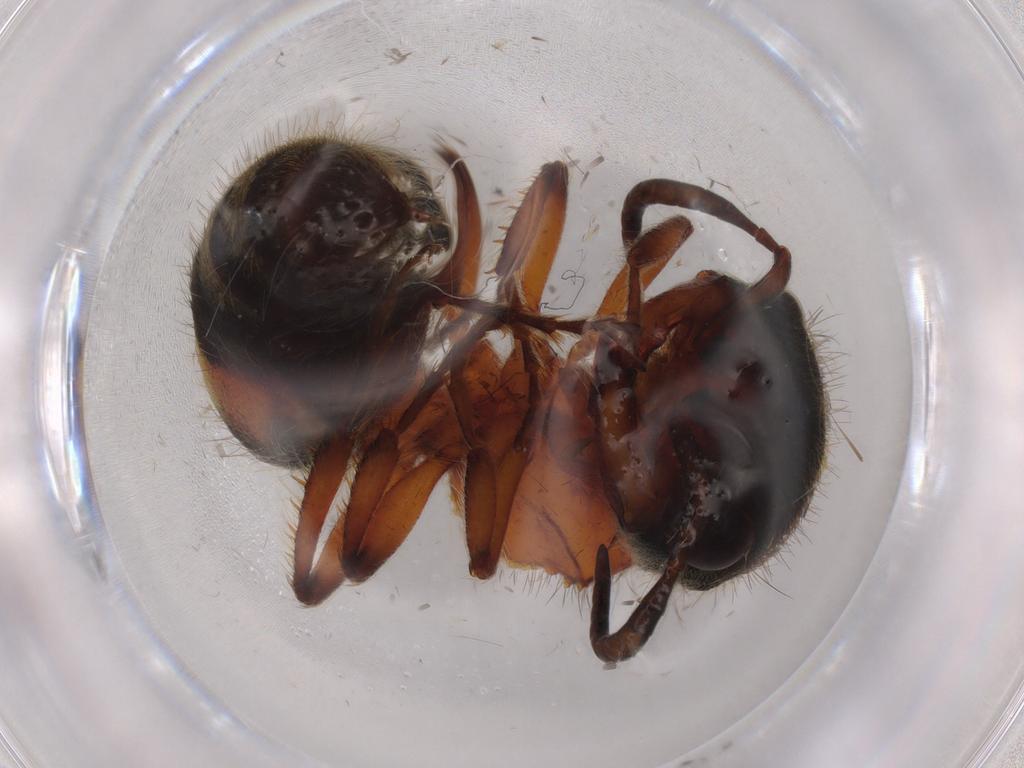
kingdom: Animalia
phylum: Arthropoda
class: Insecta
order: Hymenoptera
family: Mutillidae
